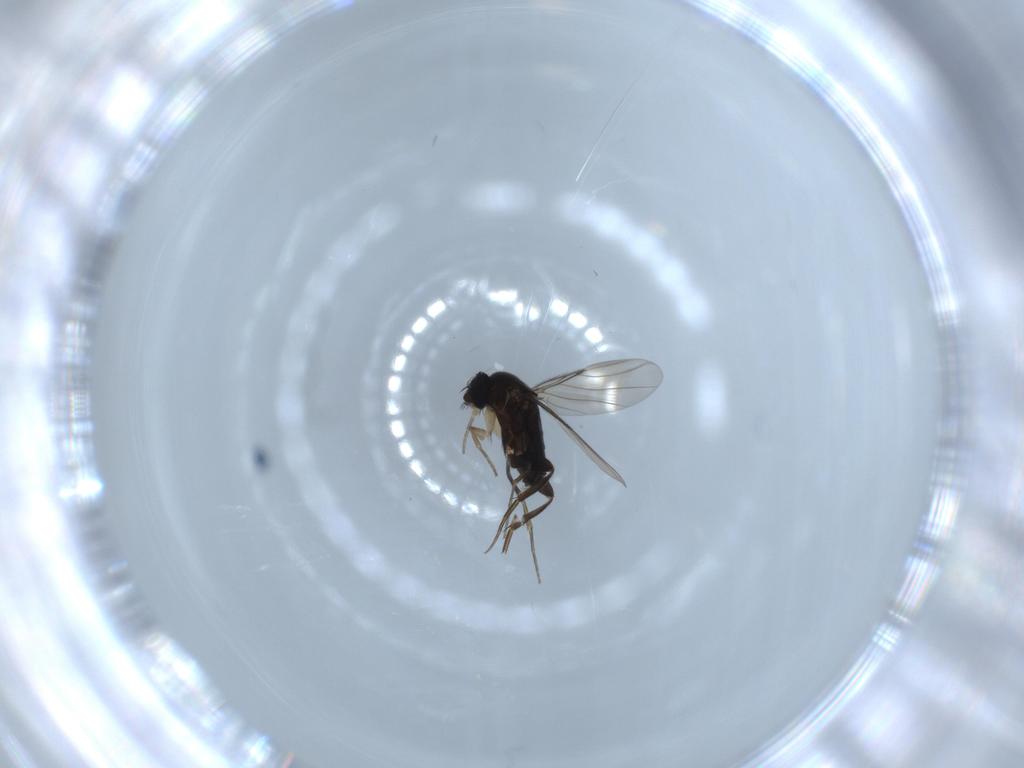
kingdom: Animalia
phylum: Arthropoda
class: Insecta
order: Diptera
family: Phoridae
